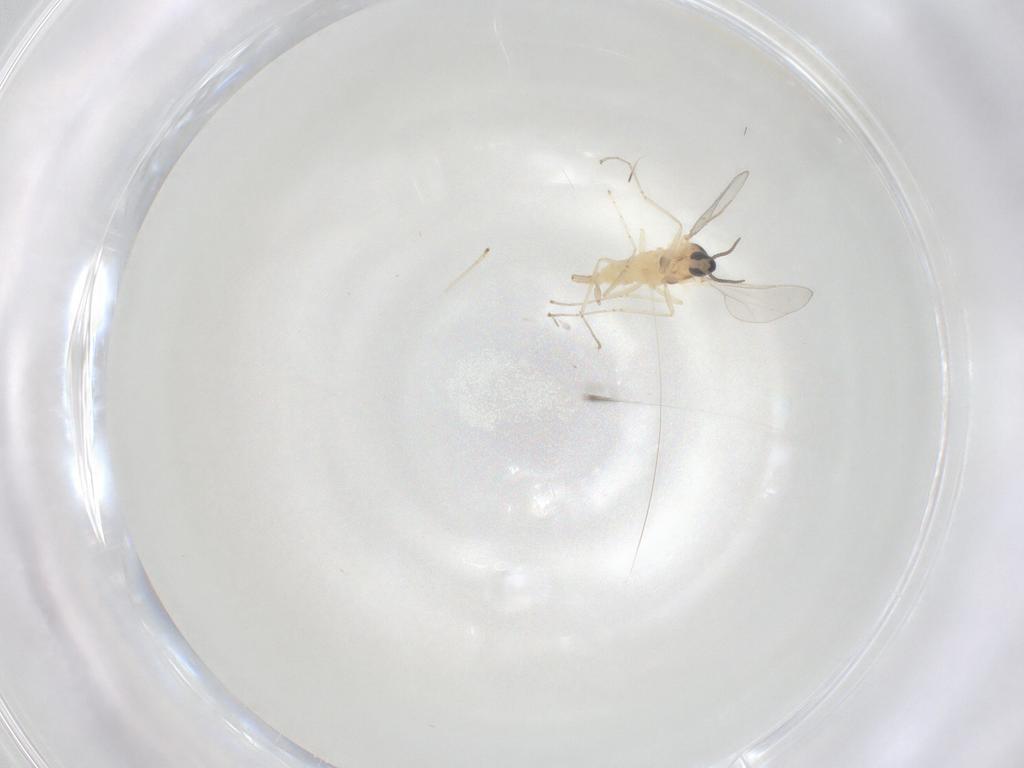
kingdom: Animalia
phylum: Arthropoda
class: Insecta
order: Diptera
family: Cecidomyiidae
